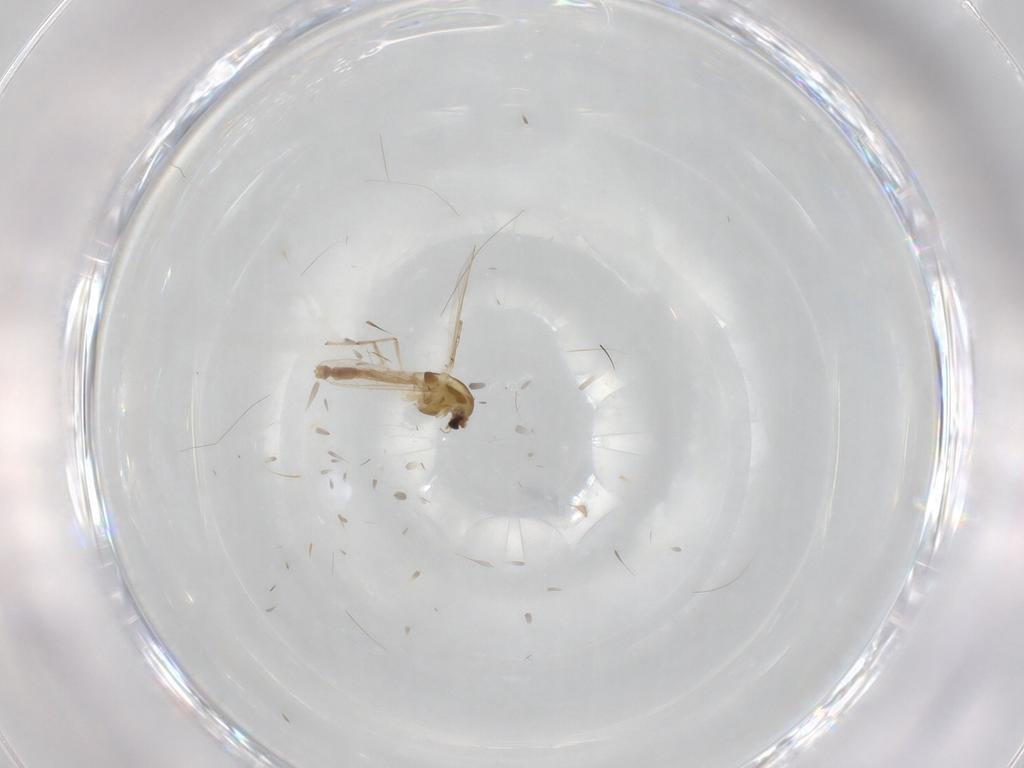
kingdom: Animalia
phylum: Arthropoda
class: Insecta
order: Diptera
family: Chironomidae
